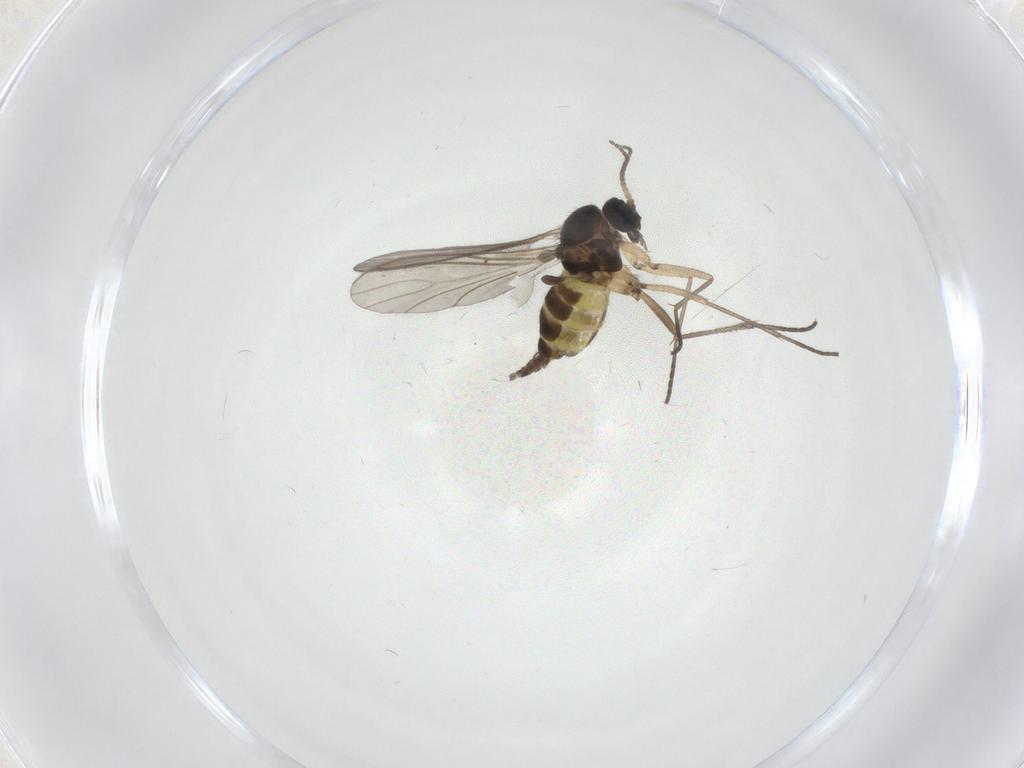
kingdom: Animalia
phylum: Arthropoda
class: Insecta
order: Diptera
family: Sciaridae
